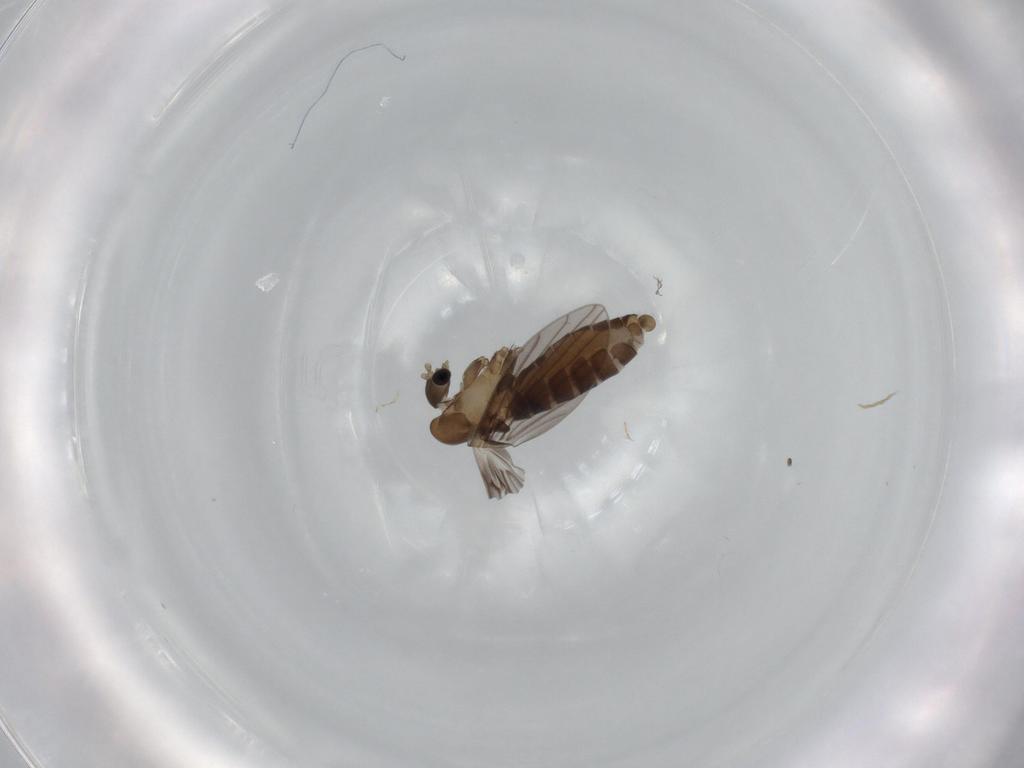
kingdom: Animalia
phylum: Arthropoda
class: Insecta
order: Diptera
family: Psychodidae
